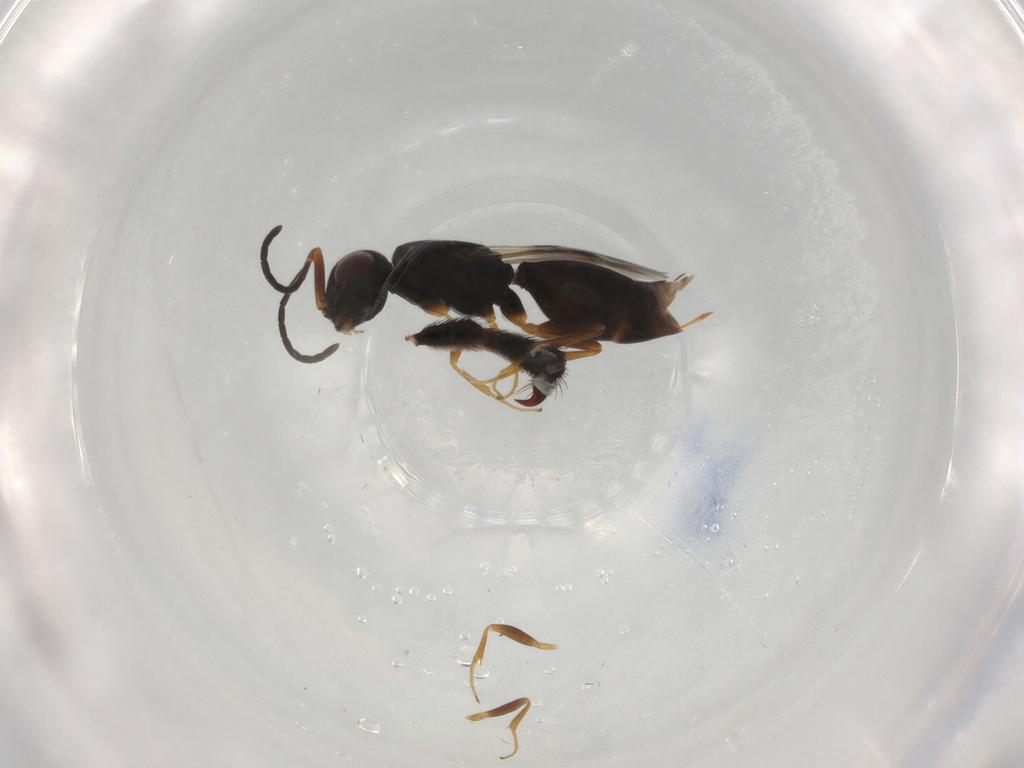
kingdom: Animalia
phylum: Arthropoda
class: Insecta
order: Hymenoptera
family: Ichneumonidae
